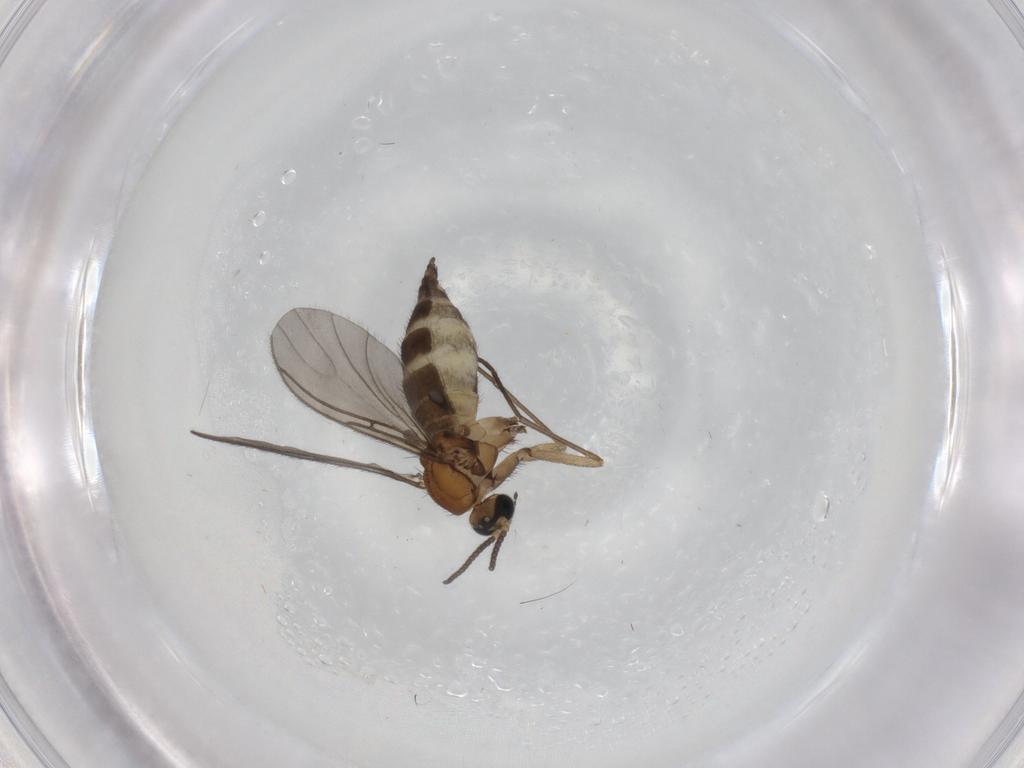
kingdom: Animalia
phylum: Arthropoda
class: Insecta
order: Diptera
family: Sciaridae
